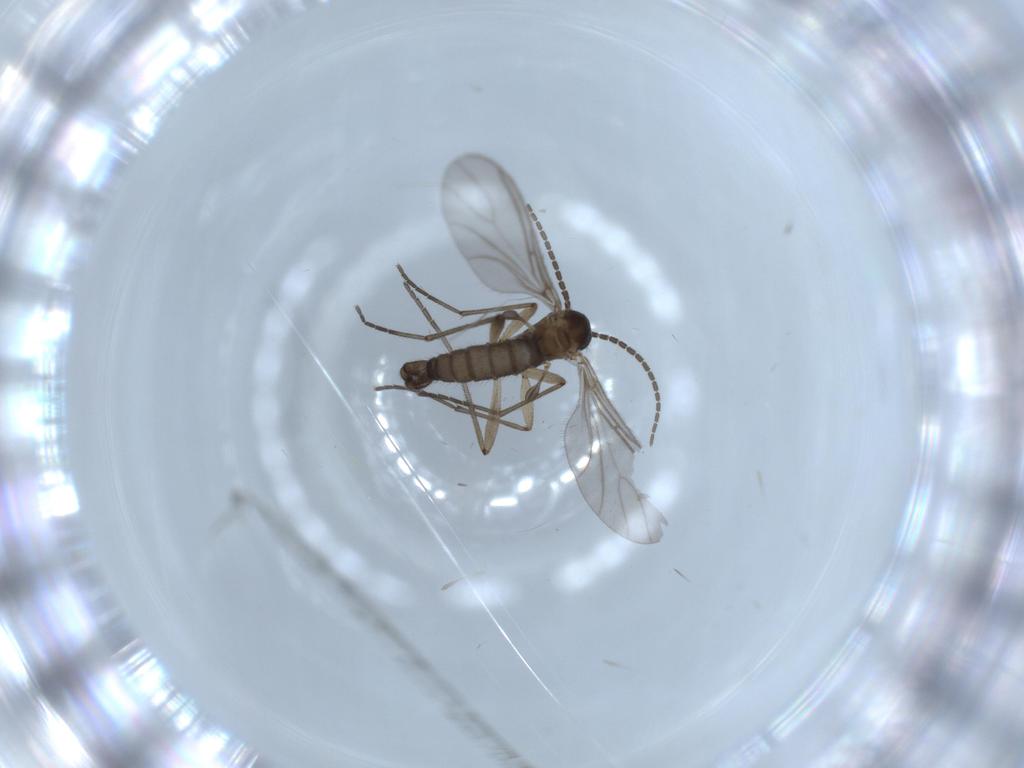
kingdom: Animalia
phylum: Arthropoda
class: Insecta
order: Diptera
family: Sciaridae
